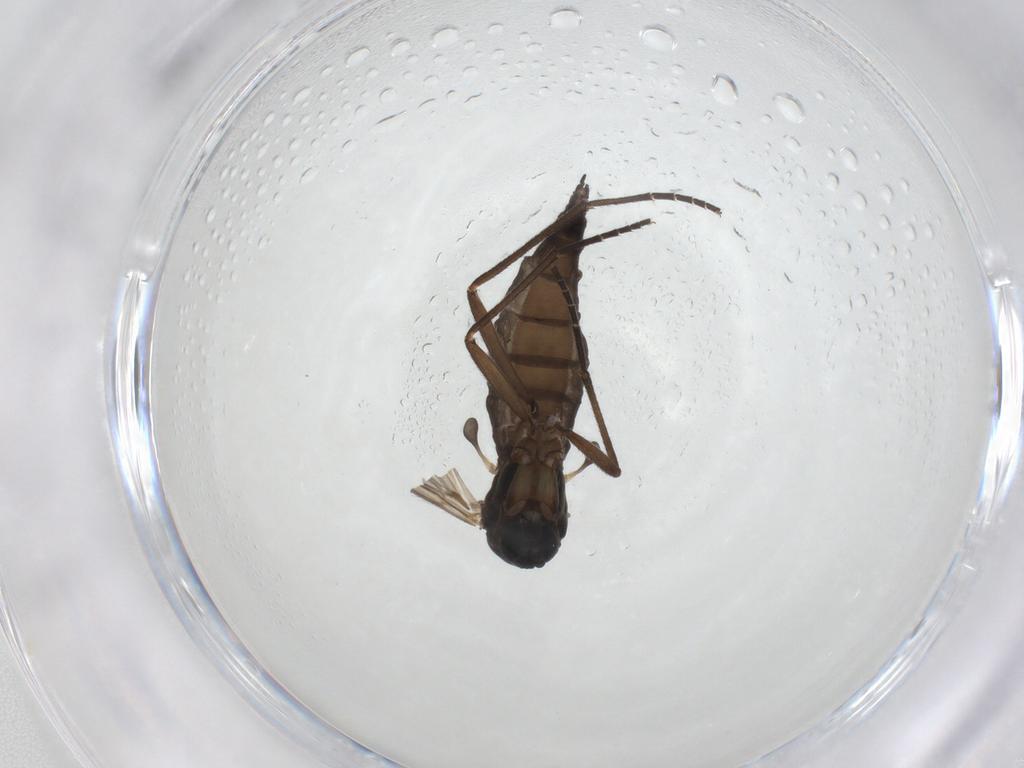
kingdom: Animalia
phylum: Arthropoda
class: Insecta
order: Diptera
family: Sciaridae
